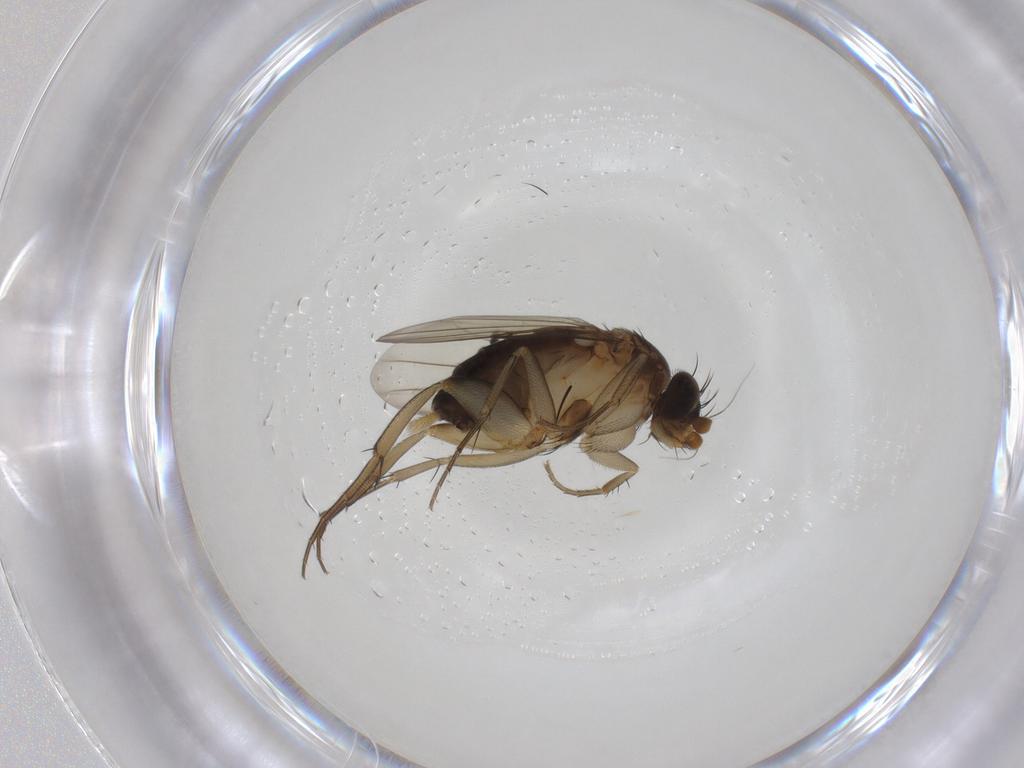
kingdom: Animalia
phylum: Arthropoda
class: Insecta
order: Diptera
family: Phoridae
